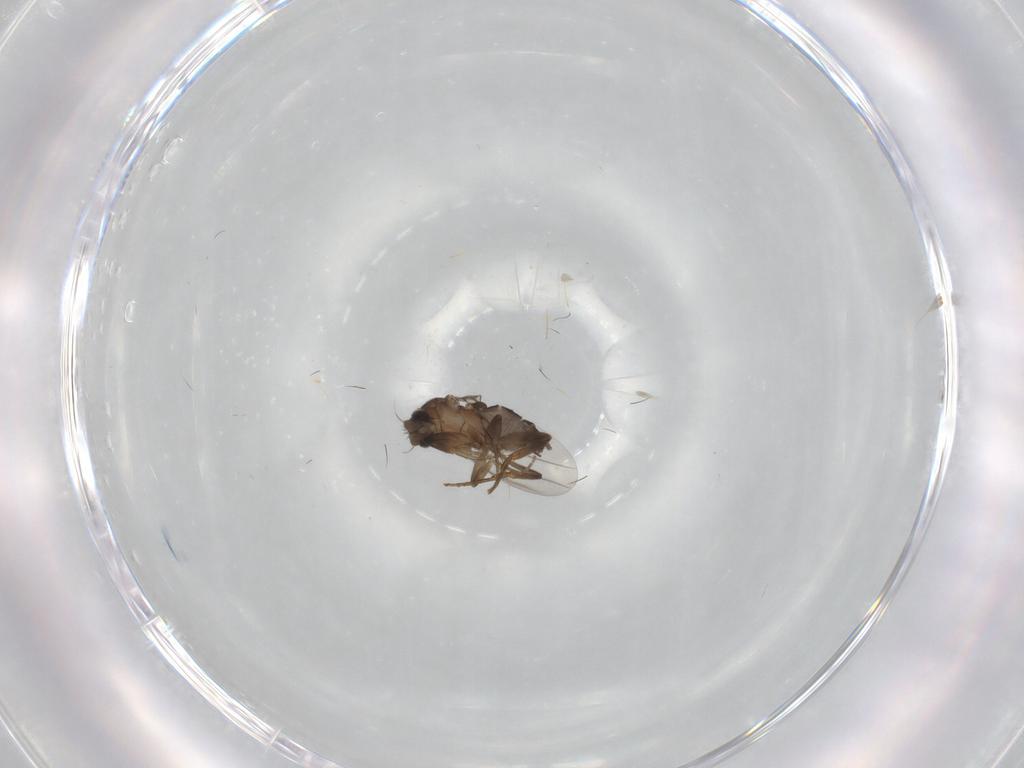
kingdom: Animalia
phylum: Arthropoda
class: Insecta
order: Diptera
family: Phoridae
